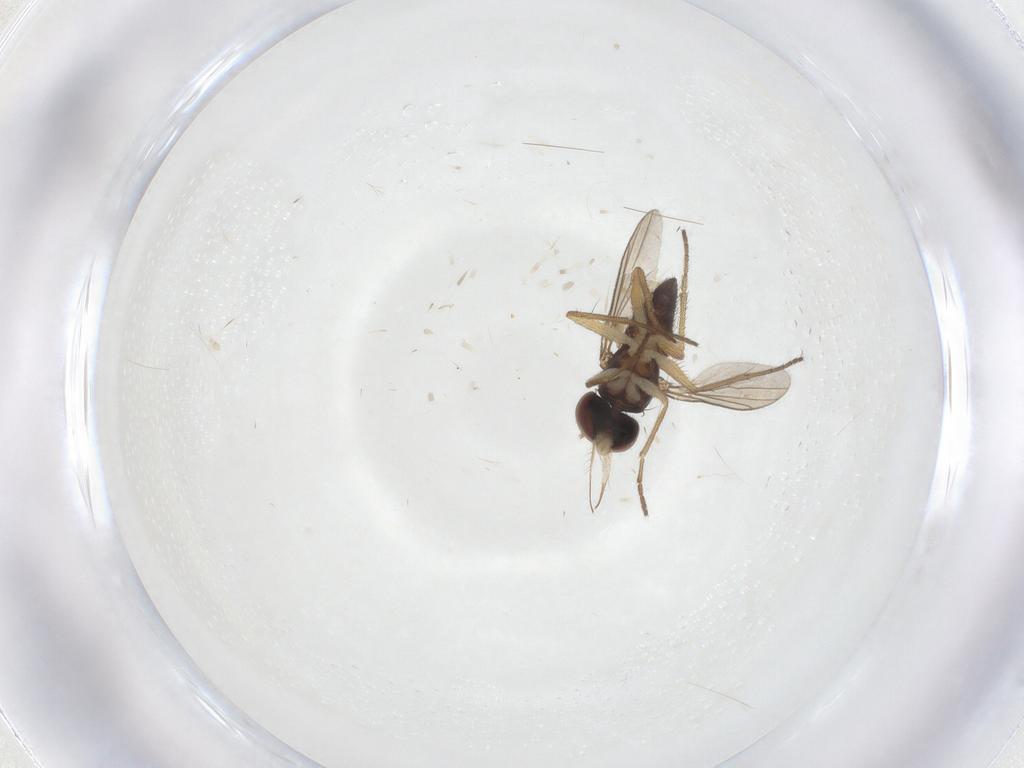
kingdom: Animalia
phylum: Arthropoda
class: Insecta
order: Diptera
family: Dolichopodidae
